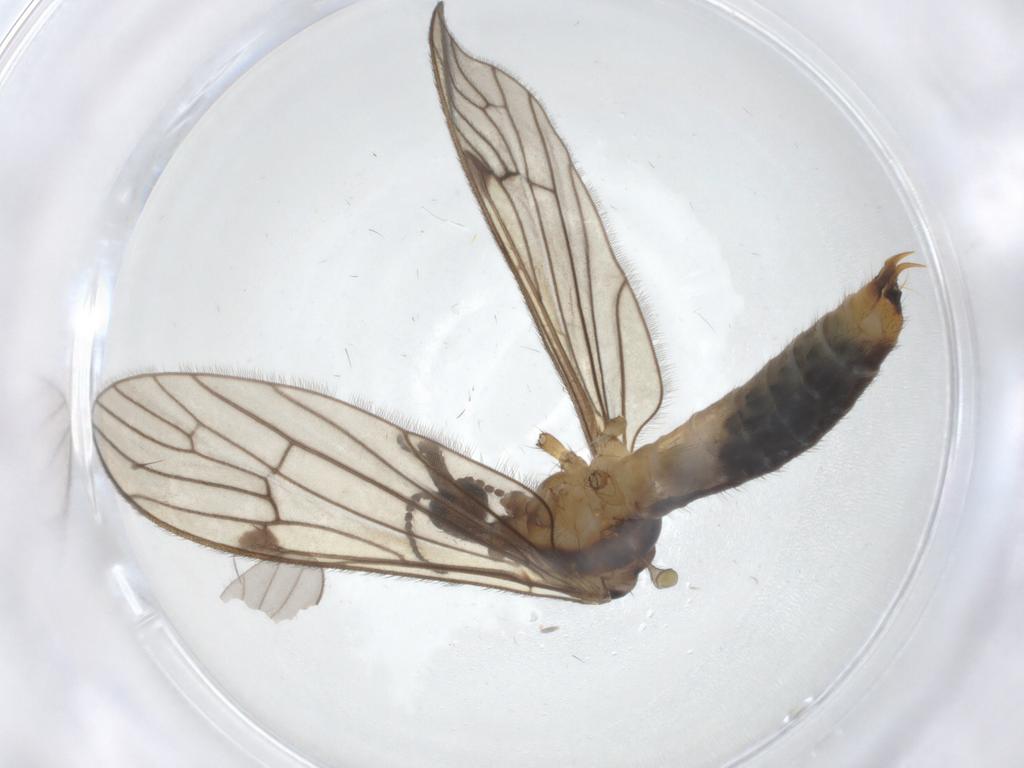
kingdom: Animalia
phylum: Arthropoda
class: Insecta
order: Diptera
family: Limoniidae
